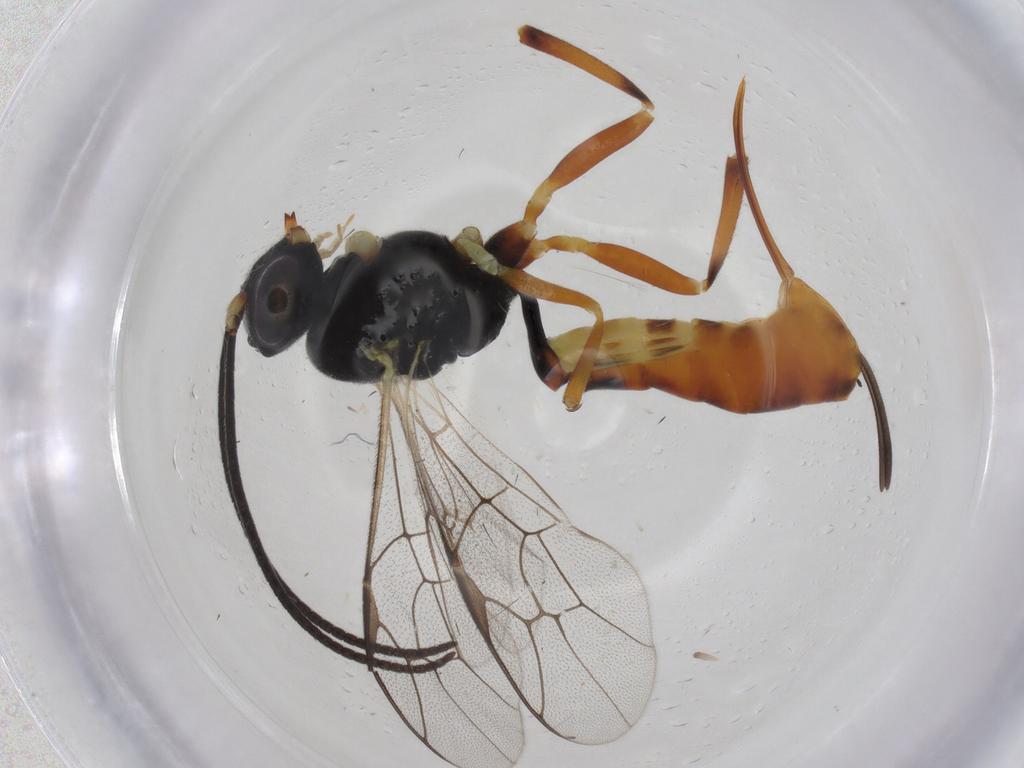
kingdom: Animalia
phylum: Arthropoda
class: Insecta
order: Hymenoptera
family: Ichneumonidae
